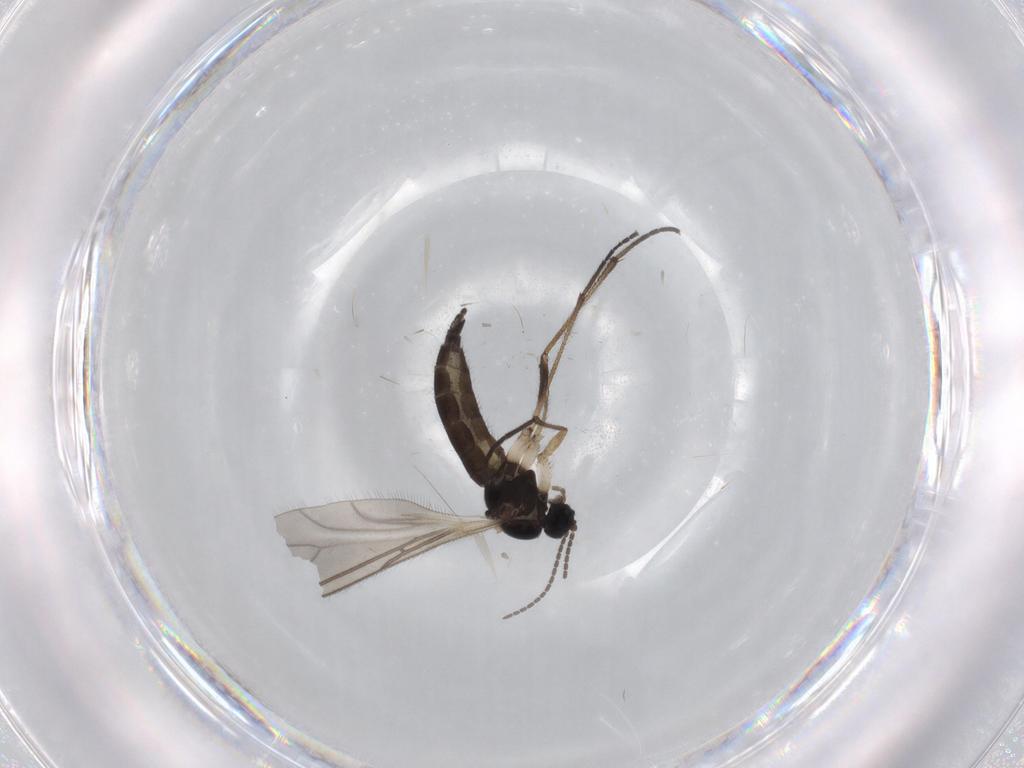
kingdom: Animalia
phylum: Arthropoda
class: Insecta
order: Diptera
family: Sciaridae
